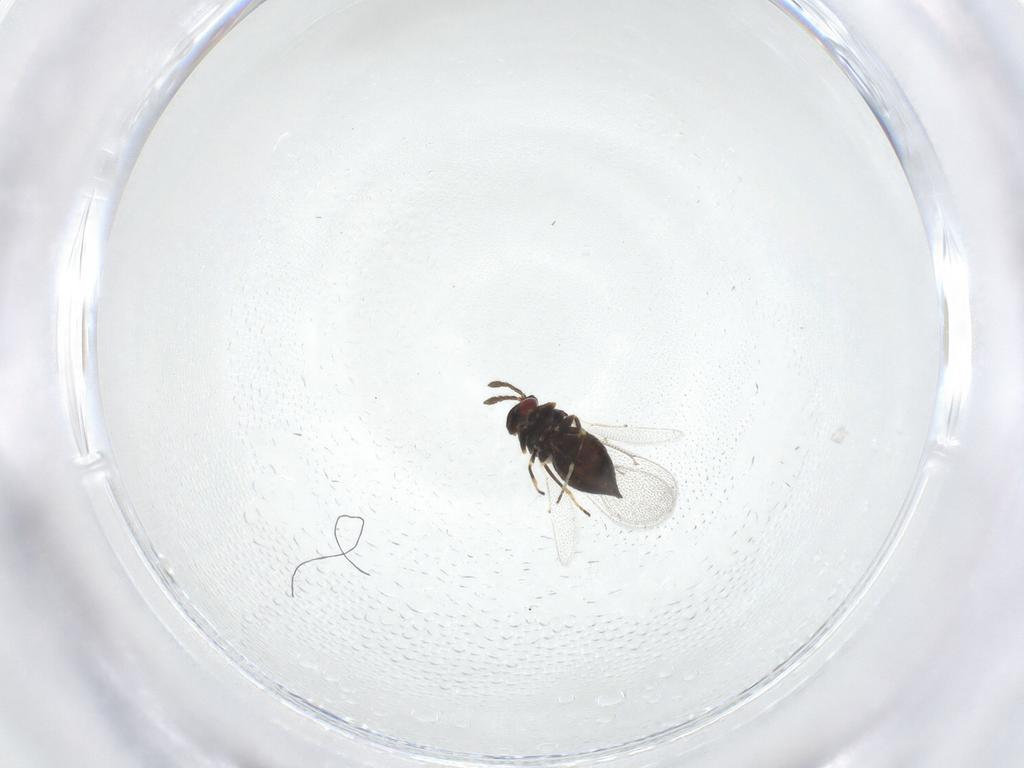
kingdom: Animalia
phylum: Arthropoda
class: Insecta
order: Hymenoptera
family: Eulophidae
